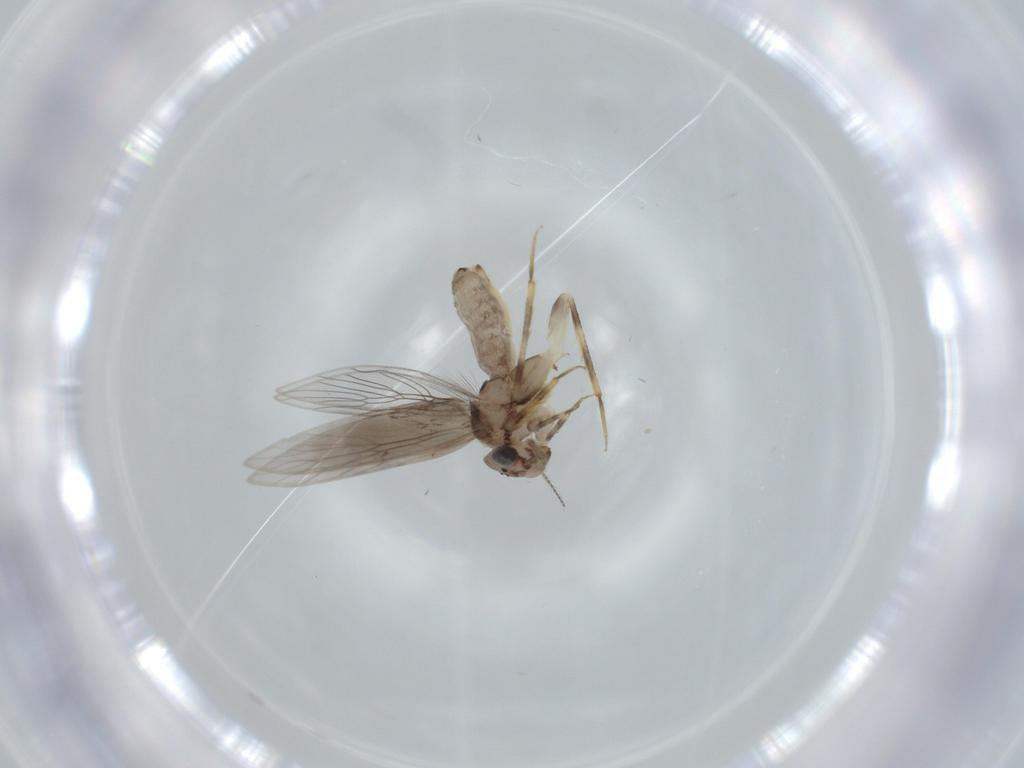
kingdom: Animalia
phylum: Arthropoda
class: Insecta
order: Psocodea
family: Lepidopsocidae
